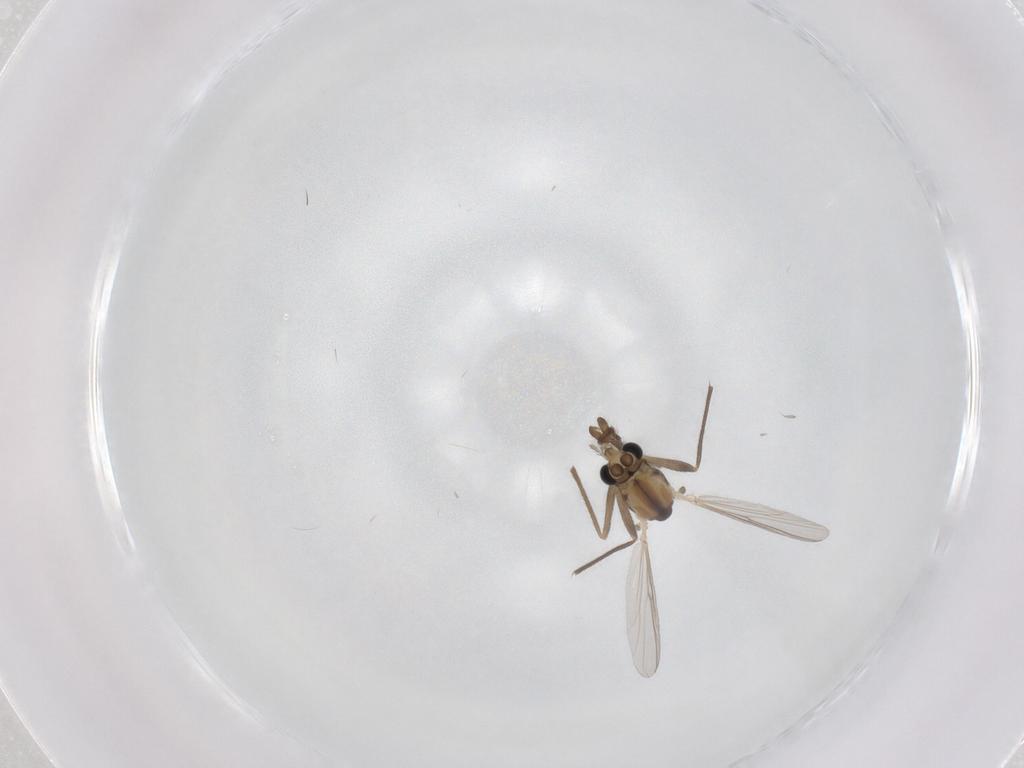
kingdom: Animalia
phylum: Arthropoda
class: Insecta
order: Diptera
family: Chironomidae
